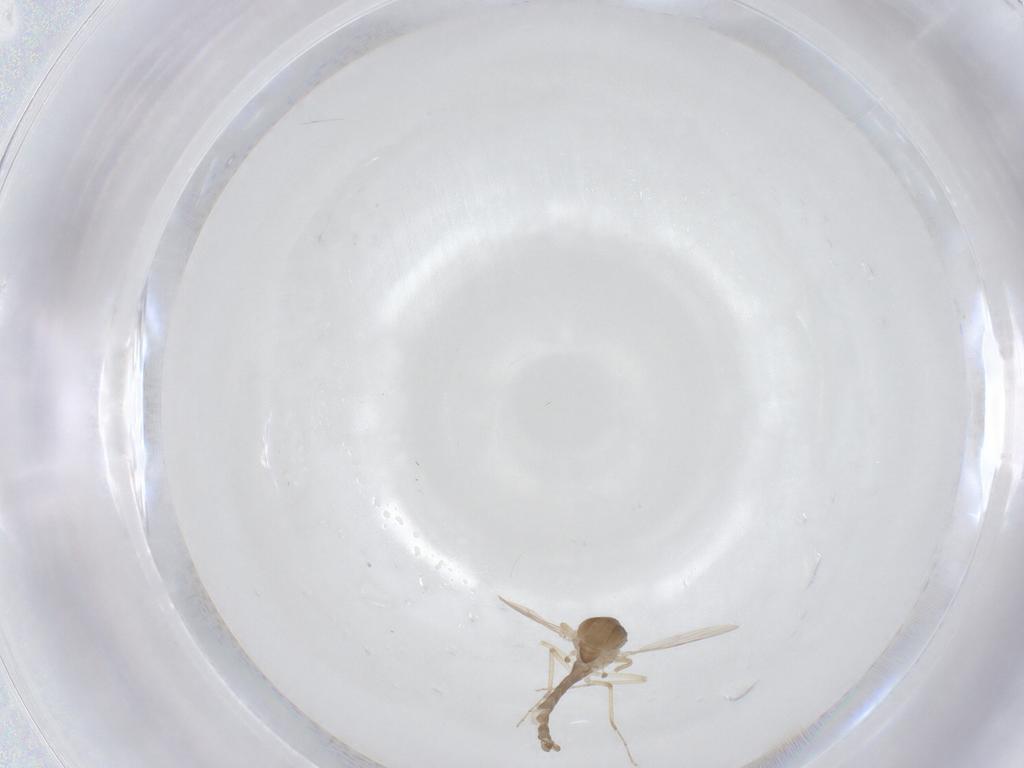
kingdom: Animalia
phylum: Arthropoda
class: Insecta
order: Diptera
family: Ceratopogonidae
